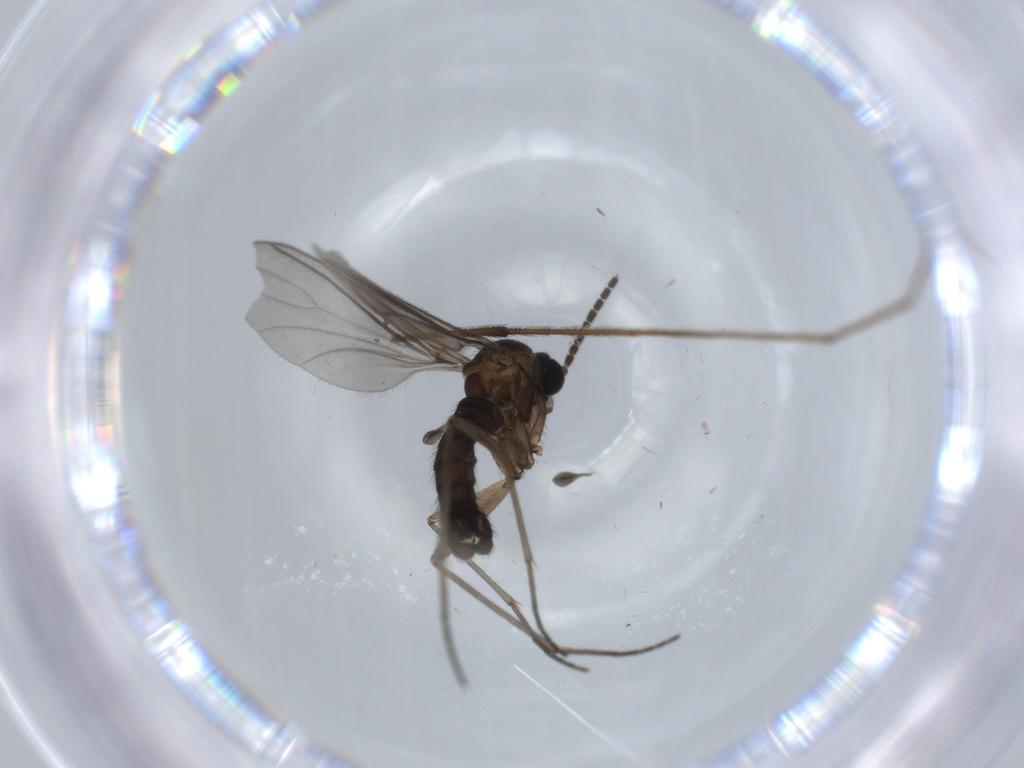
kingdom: Animalia
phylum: Arthropoda
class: Insecta
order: Diptera
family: Sciaridae
